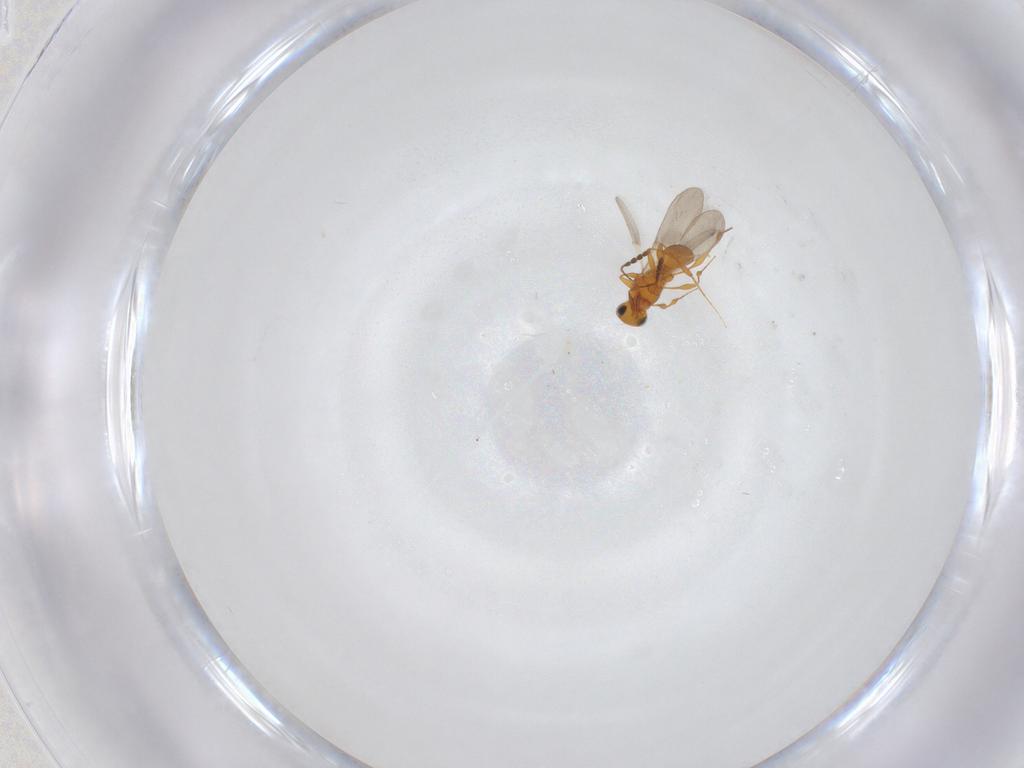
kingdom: Animalia
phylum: Arthropoda
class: Insecta
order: Hymenoptera
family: Platygastridae
